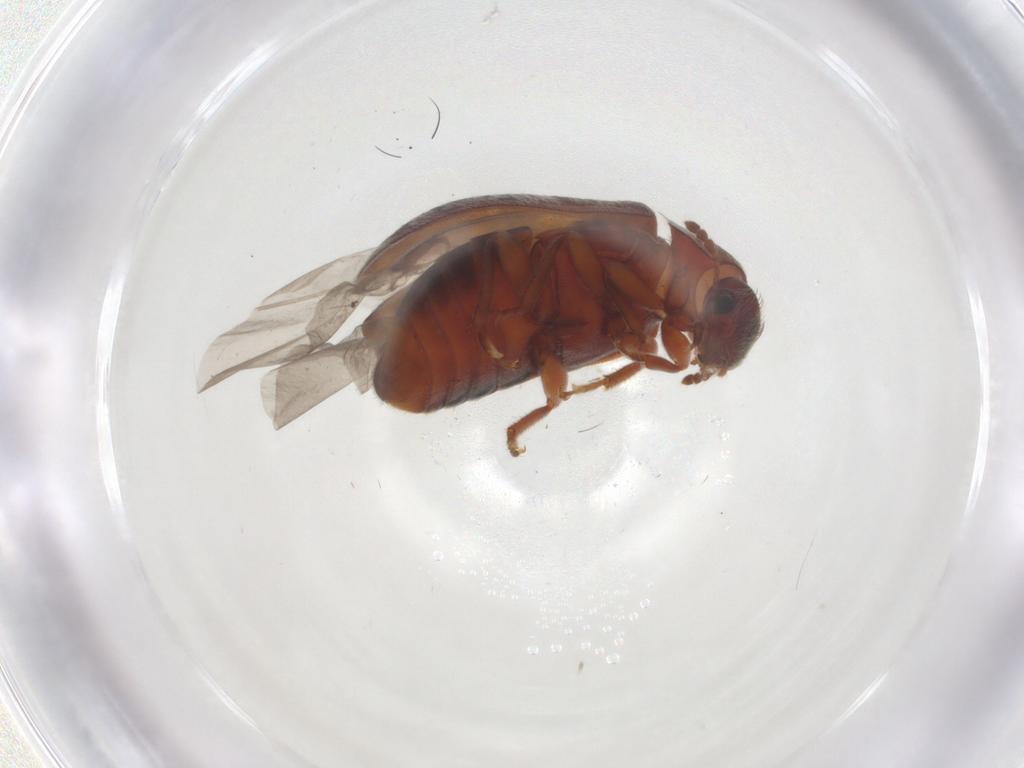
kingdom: Animalia
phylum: Arthropoda
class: Insecta
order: Coleoptera
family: Byturidae
